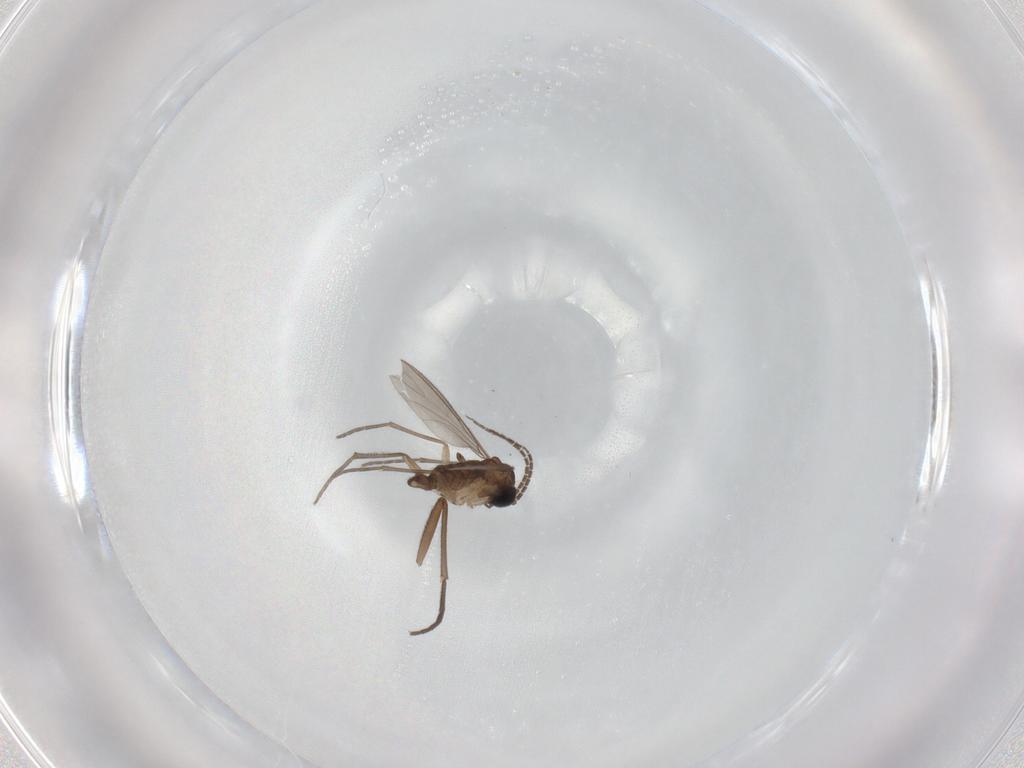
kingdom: Animalia
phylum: Arthropoda
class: Insecta
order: Diptera
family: Sciaridae
